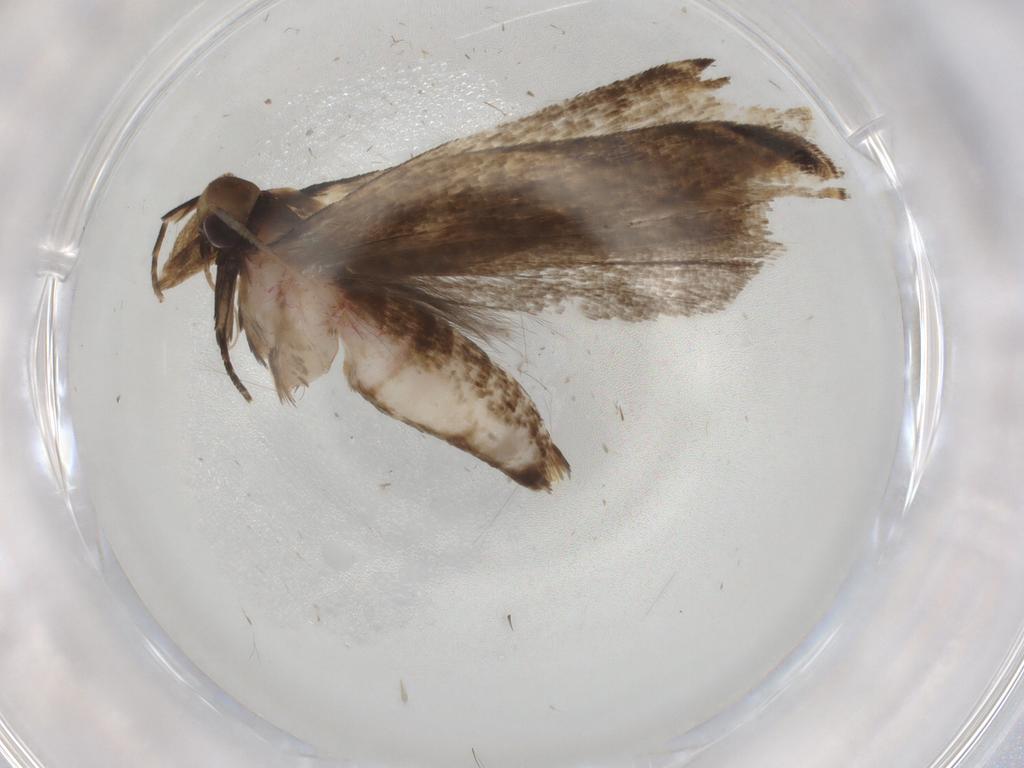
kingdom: Animalia
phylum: Arthropoda
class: Insecta
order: Lepidoptera
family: Gelechiidae
